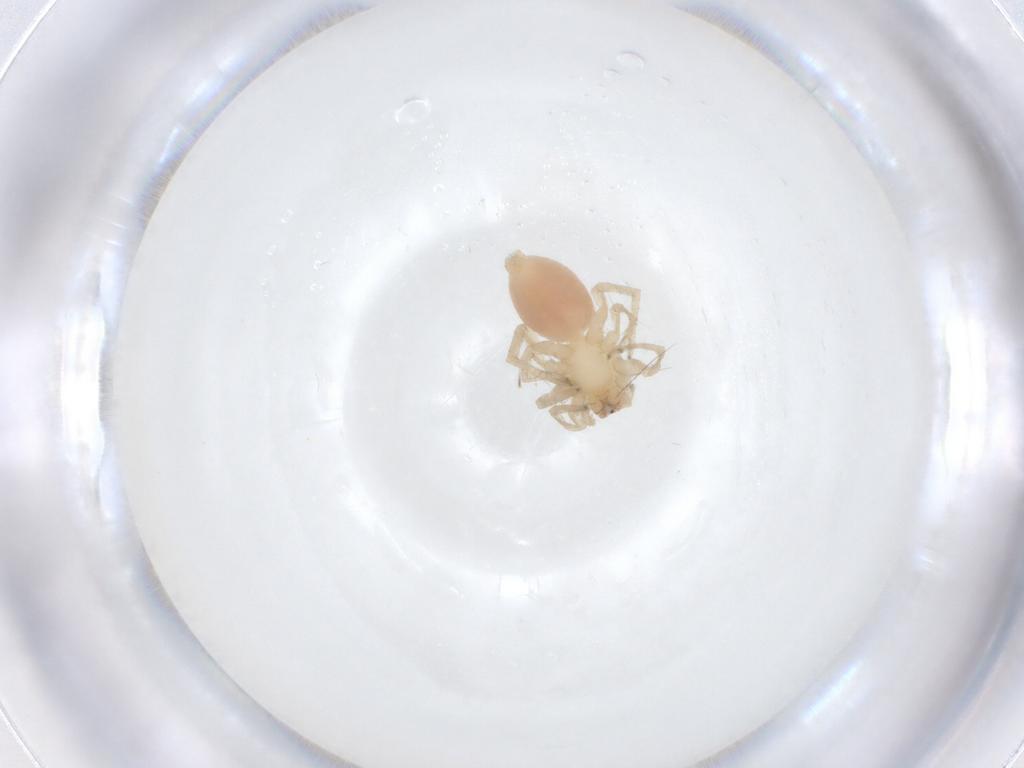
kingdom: Animalia
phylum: Arthropoda
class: Arachnida
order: Araneae
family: Clubionidae
